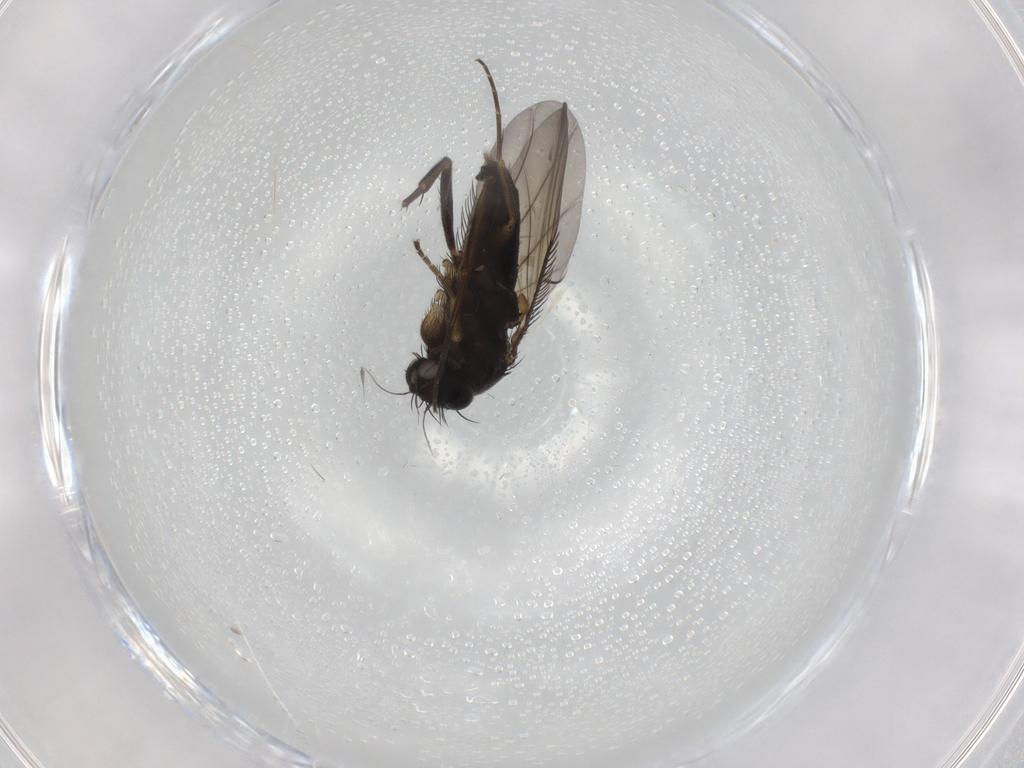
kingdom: Animalia
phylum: Arthropoda
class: Insecta
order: Diptera
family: Phoridae
